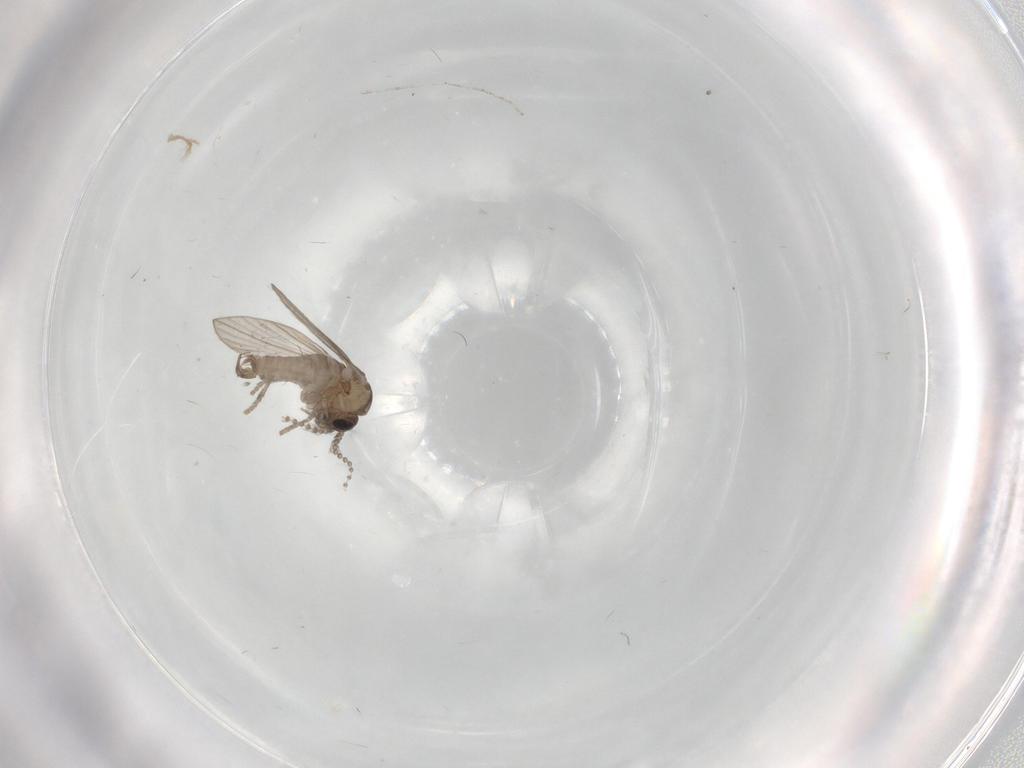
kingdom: Animalia
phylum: Arthropoda
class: Insecta
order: Diptera
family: Psychodidae
